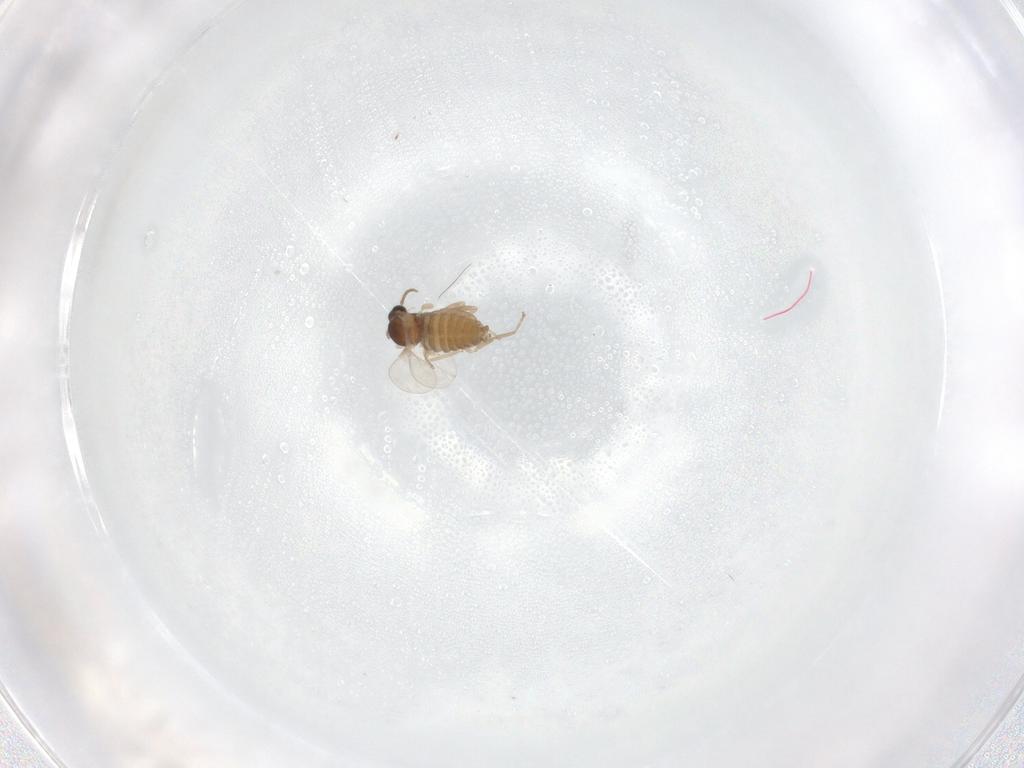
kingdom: Animalia
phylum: Arthropoda
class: Insecta
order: Diptera
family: Cecidomyiidae
